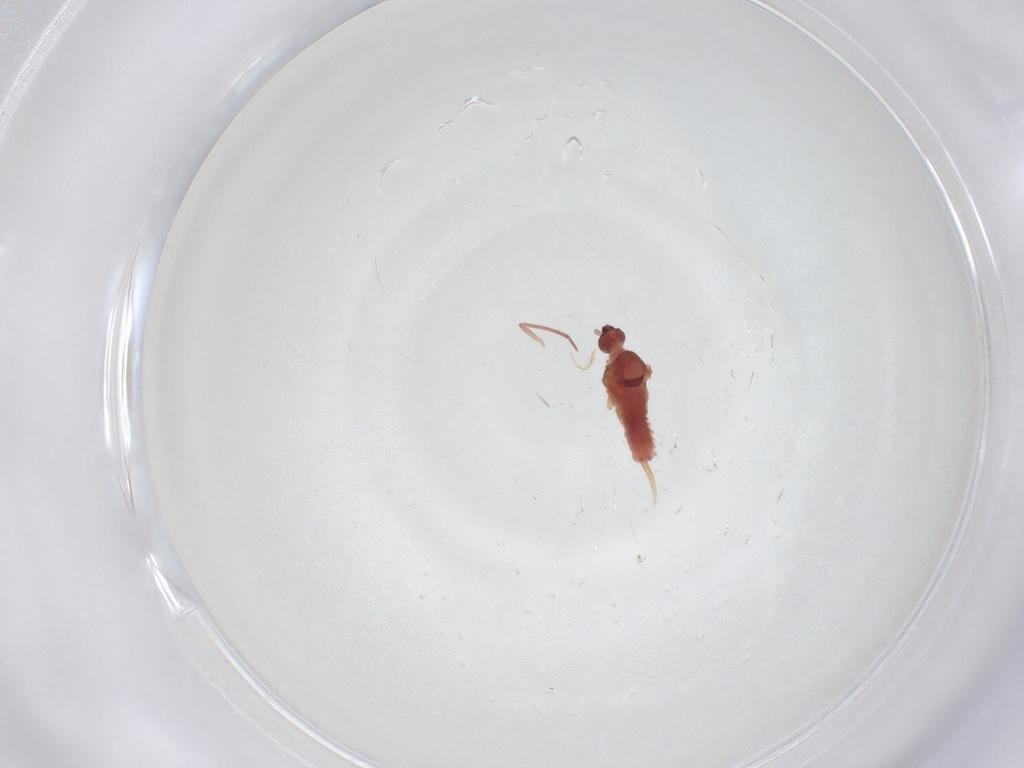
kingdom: Animalia
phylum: Arthropoda
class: Insecta
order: Hemiptera
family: Coccidae
